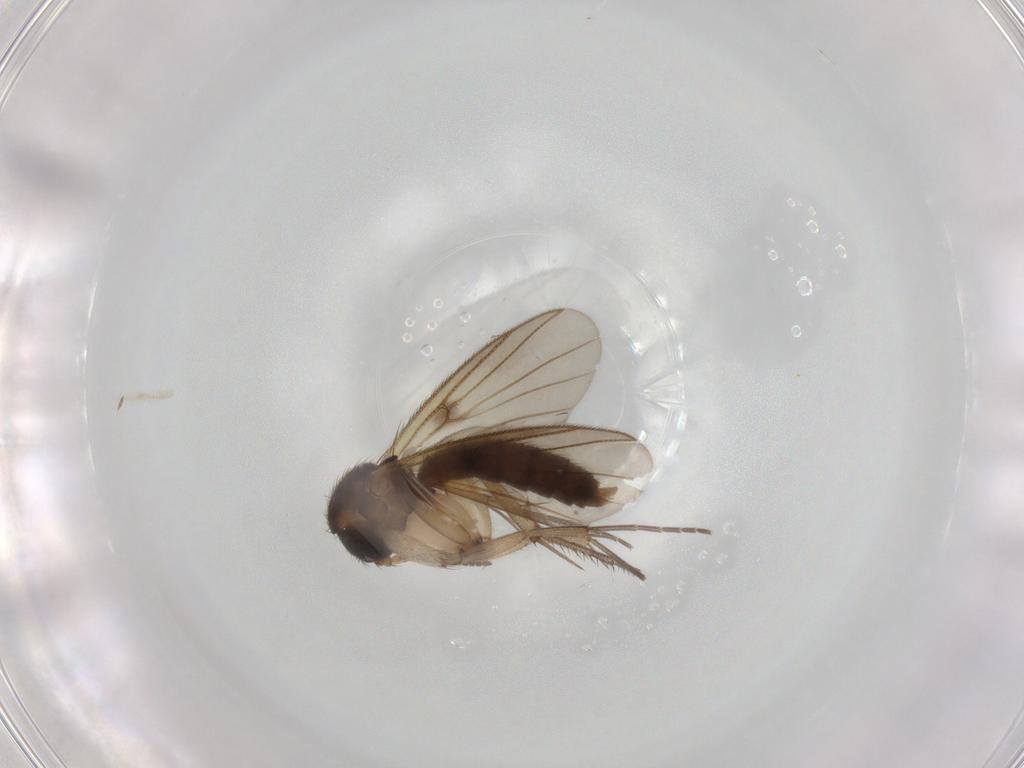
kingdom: Animalia
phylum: Arthropoda
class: Insecta
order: Diptera
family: Mycetophilidae
